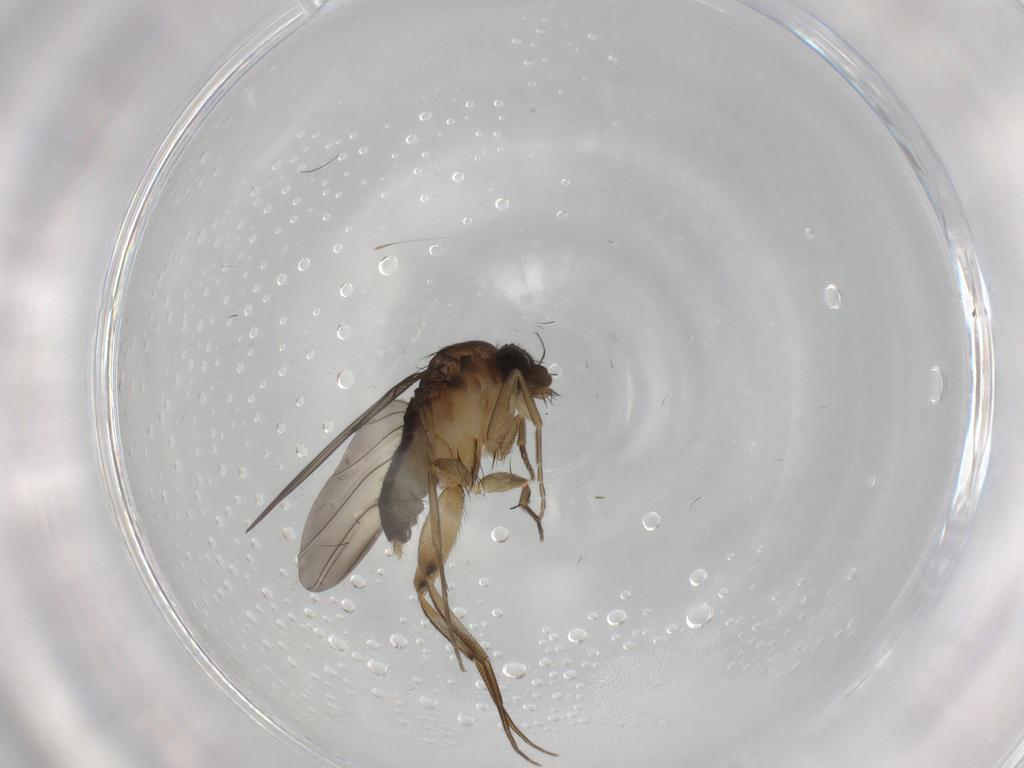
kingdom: Animalia
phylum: Arthropoda
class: Insecta
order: Diptera
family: Phoridae
